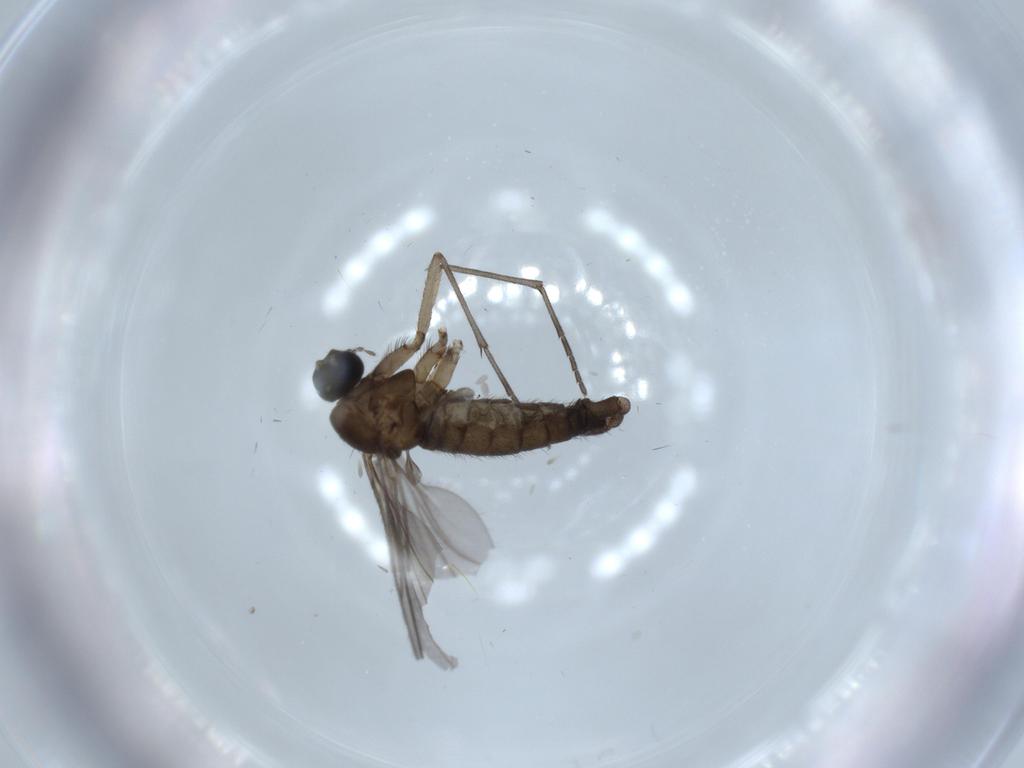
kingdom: Animalia
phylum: Arthropoda
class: Insecta
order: Diptera
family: Sciaridae
